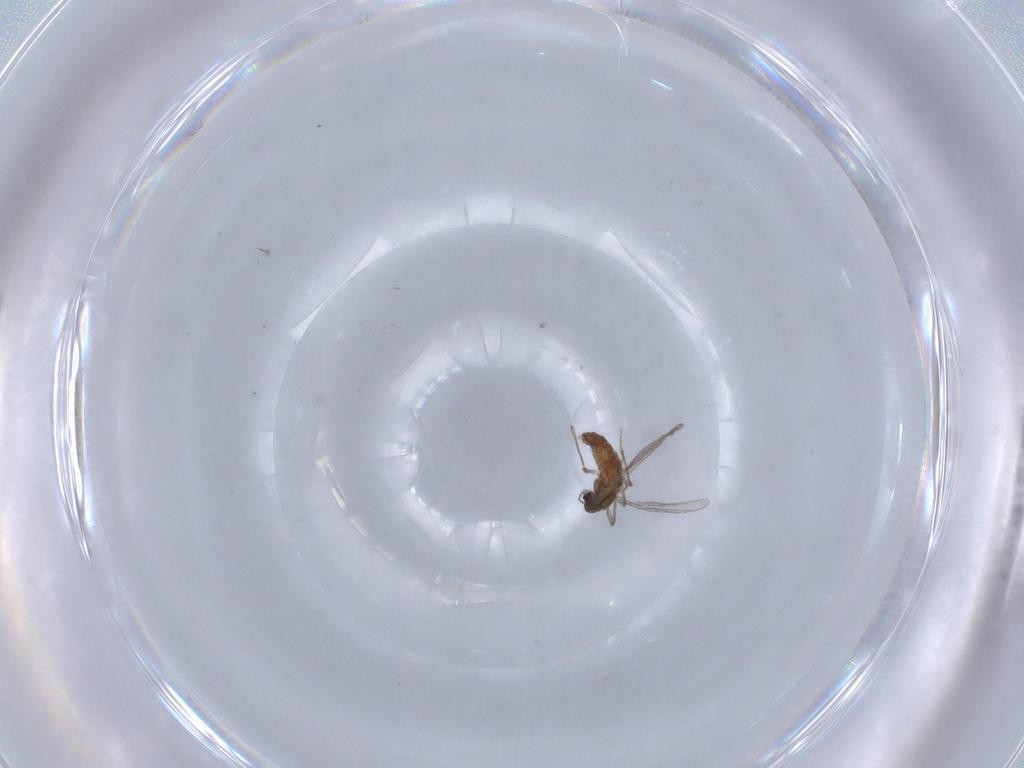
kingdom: Animalia
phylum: Arthropoda
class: Insecta
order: Diptera
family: Chironomidae
